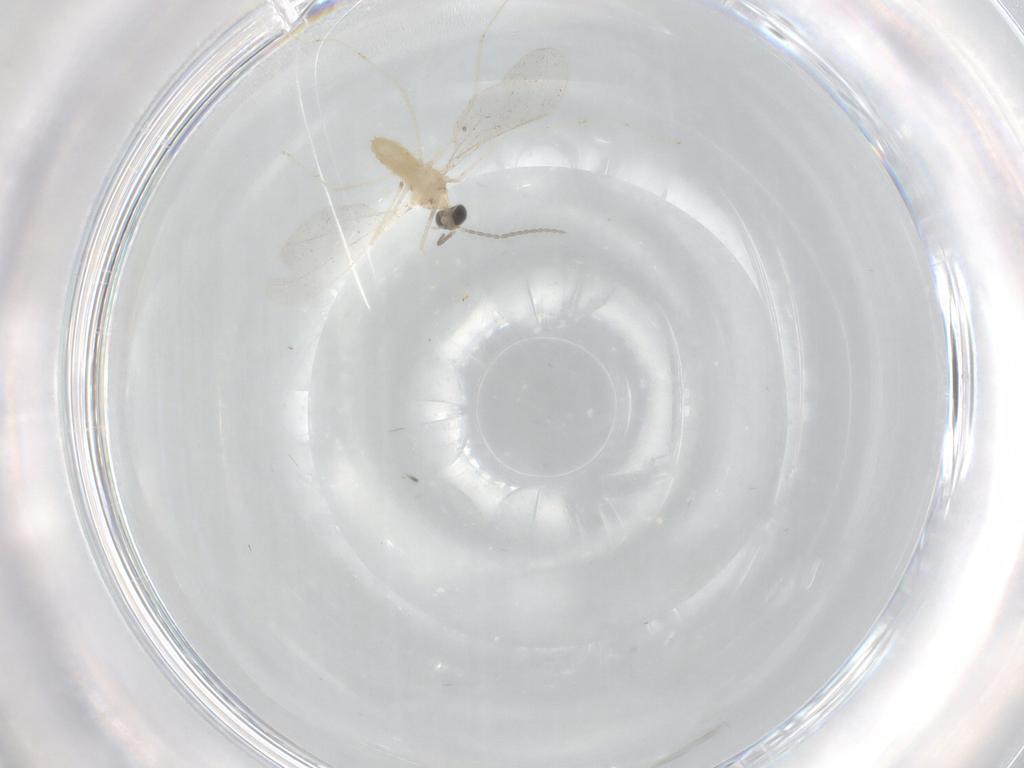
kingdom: Animalia
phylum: Arthropoda
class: Insecta
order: Diptera
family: Cecidomyiidae
